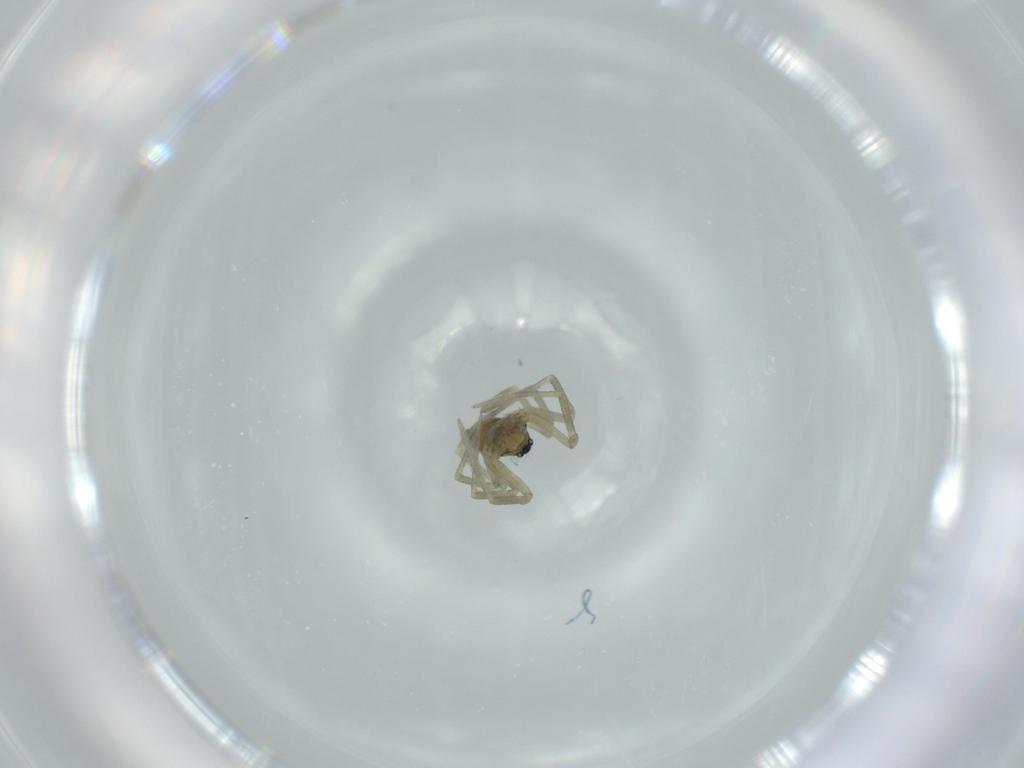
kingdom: Animalia
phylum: Arthropoda
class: Arachnida
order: Araneae
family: Linyphiidae
